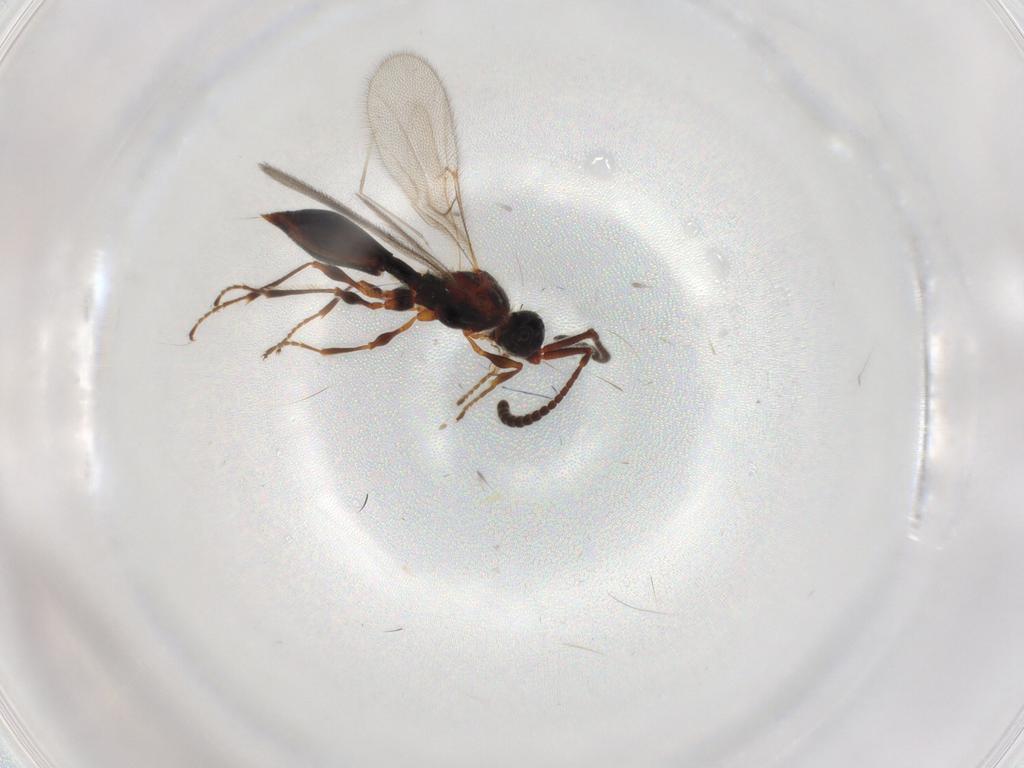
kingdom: Animalia
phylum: Arthropoda
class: Insecta
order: Hymenoptera
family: Diapriidae
